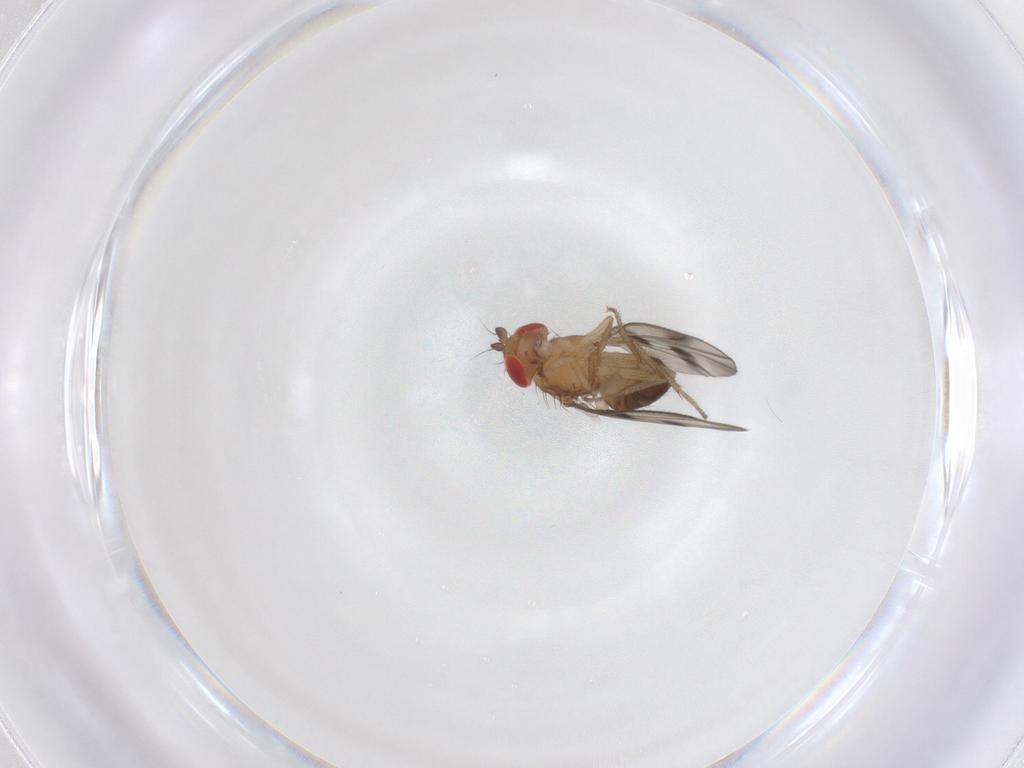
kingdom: Animalia
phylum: Arthropoda
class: Insecta
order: Diptera
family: Drosophilidae
